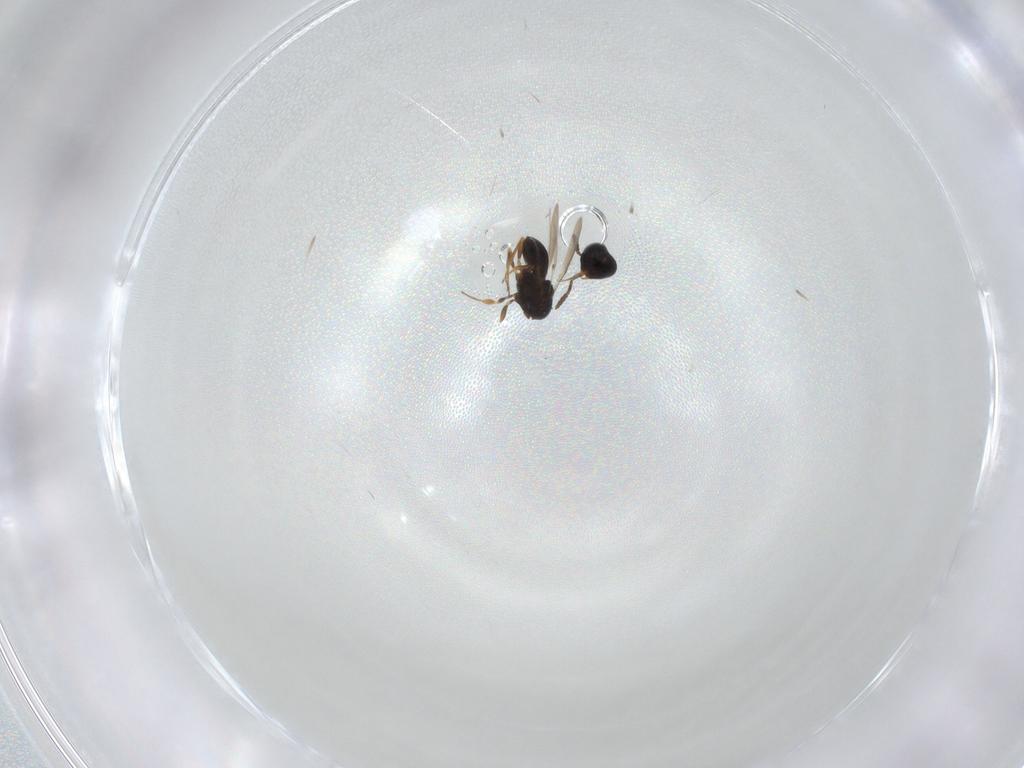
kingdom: Animalia
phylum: Arthropoda
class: Insecta
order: Hymenoptera
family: Scelionidae
